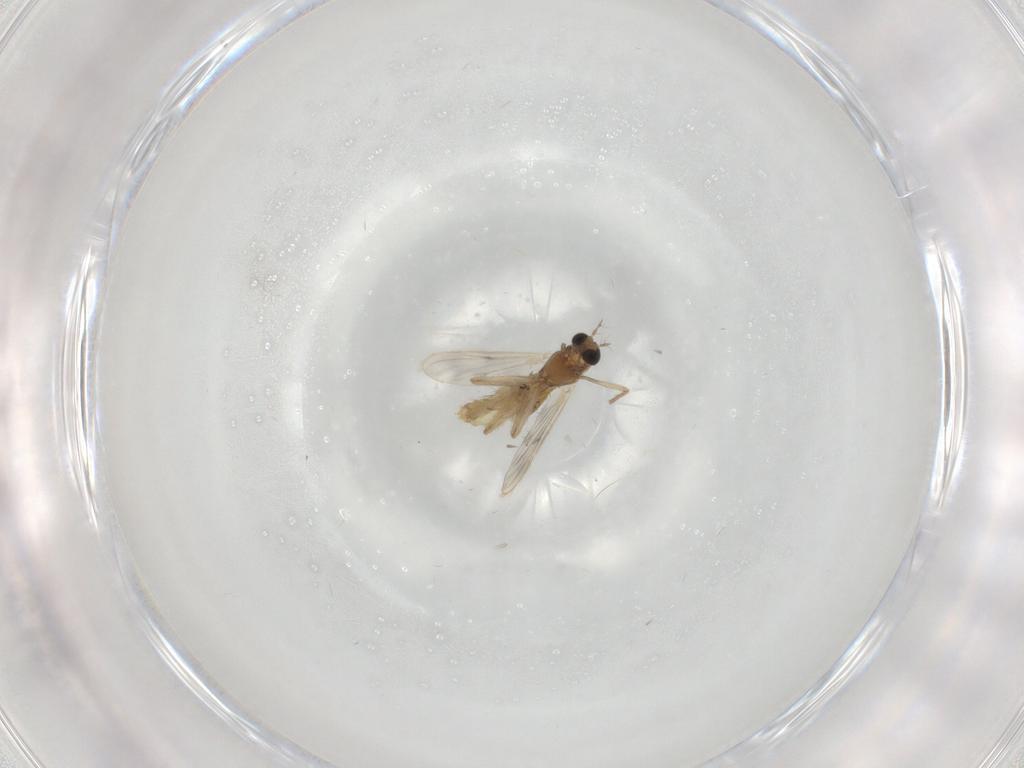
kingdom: Animalia
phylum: Arthropoda
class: Insecta
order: Diptera
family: Chironomidae
